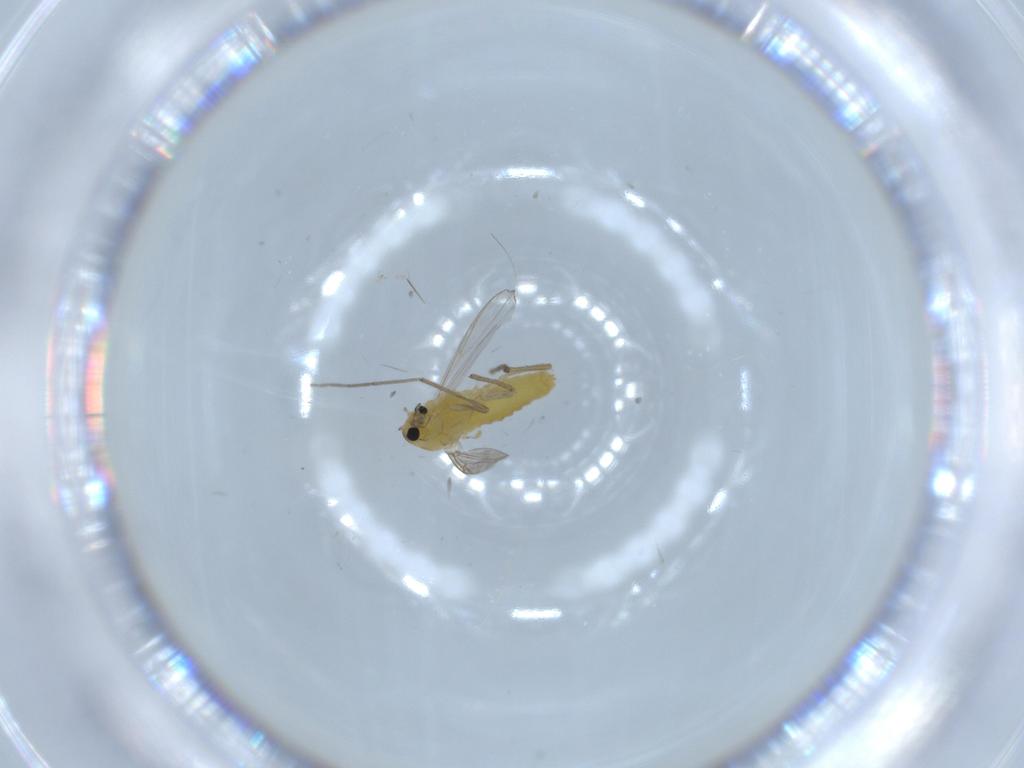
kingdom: Animalia
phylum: Arthropoda
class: Insecta
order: Diptera
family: Chironomidae
